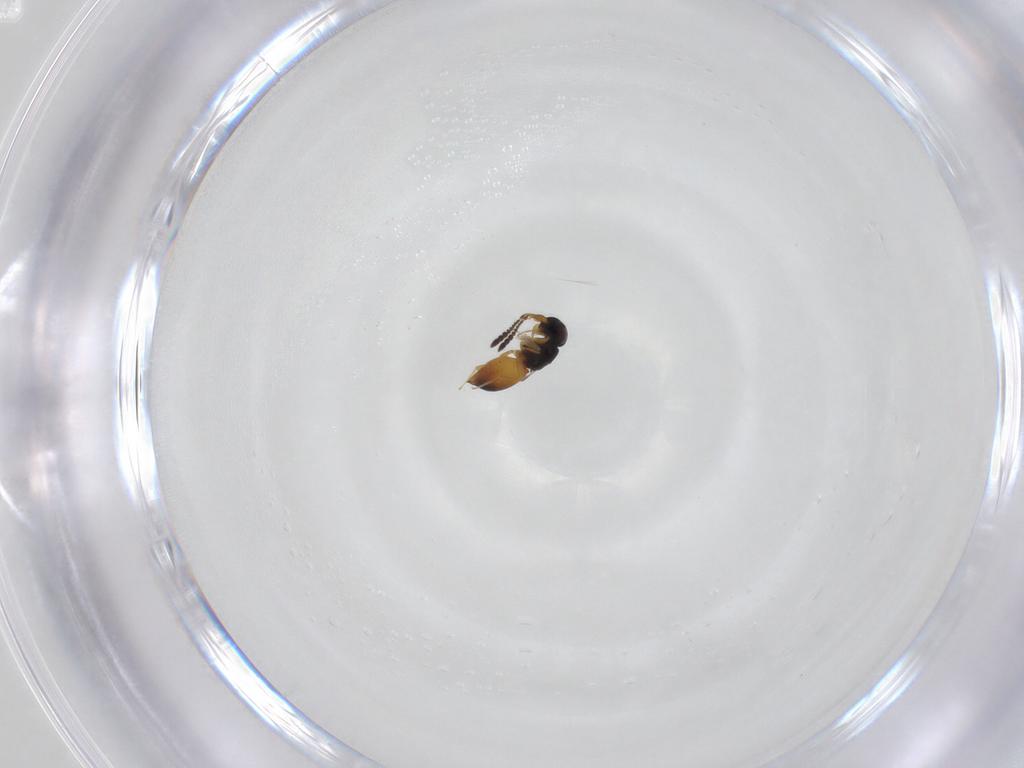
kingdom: Animalia
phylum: Arthropoda
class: Insecta
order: Hymenoptera
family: Ceraphronidae
